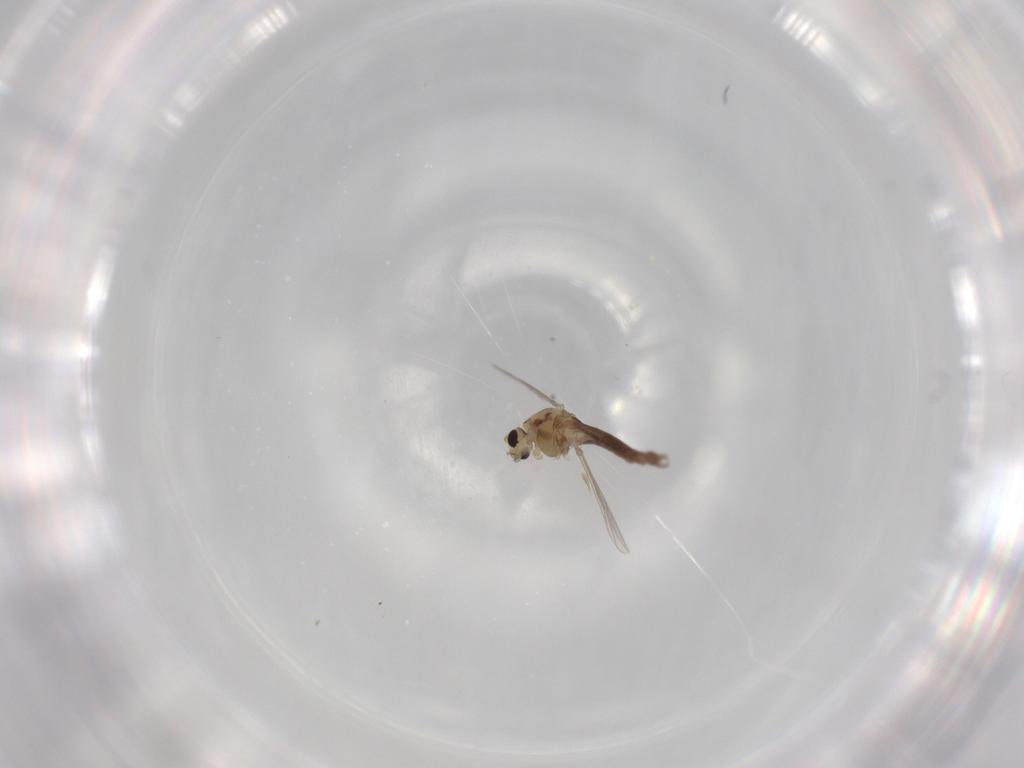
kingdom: Animalia
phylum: Arthropoda
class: Insecta
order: Diptera
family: Chironomidae
